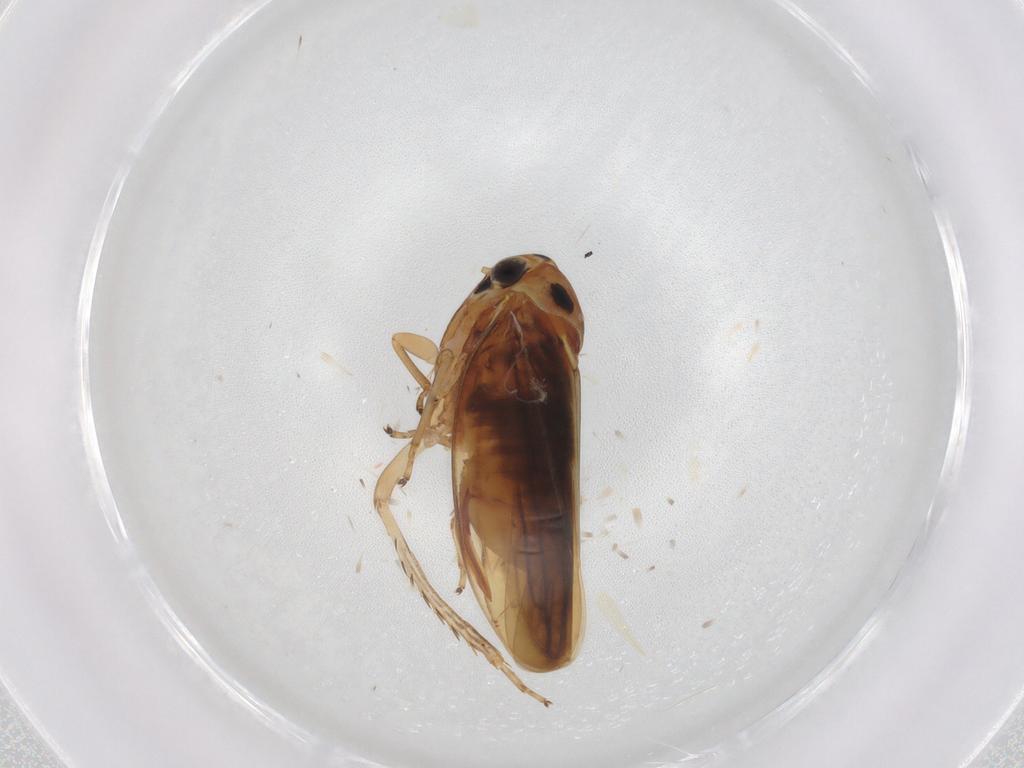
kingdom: Animalia
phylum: Arthropoda
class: Insecta
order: Hemiptera
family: Cicadellidae
